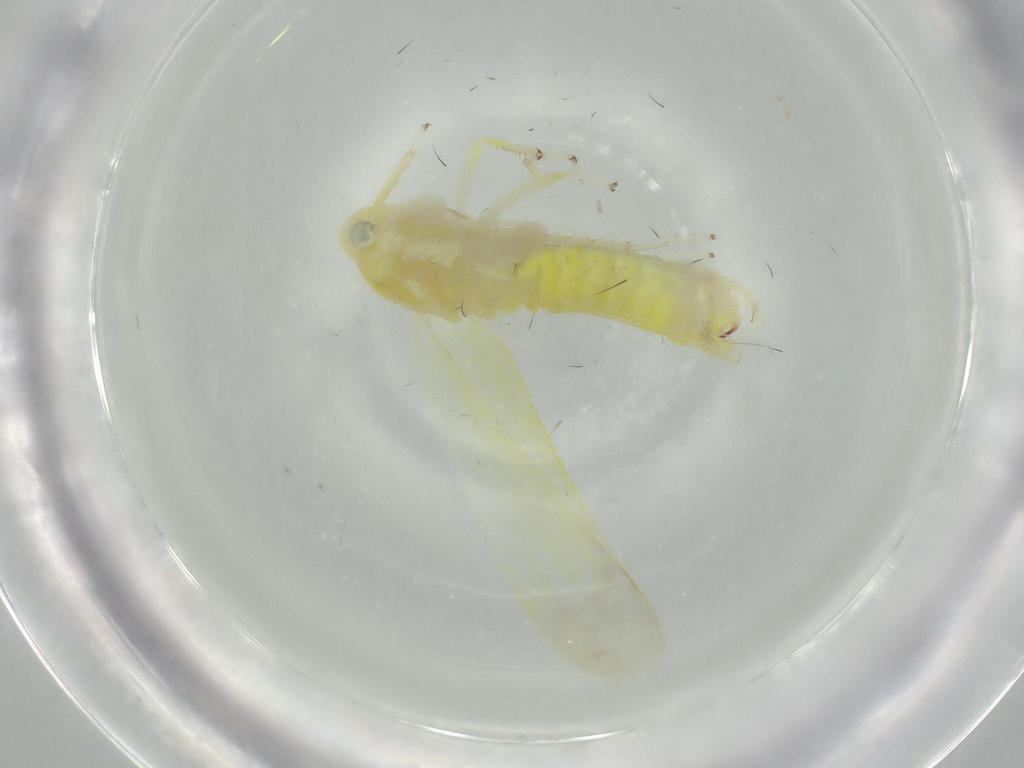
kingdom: Animalia
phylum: Arthropoda
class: Insecta
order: Hemiptera
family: Cicadellidae
